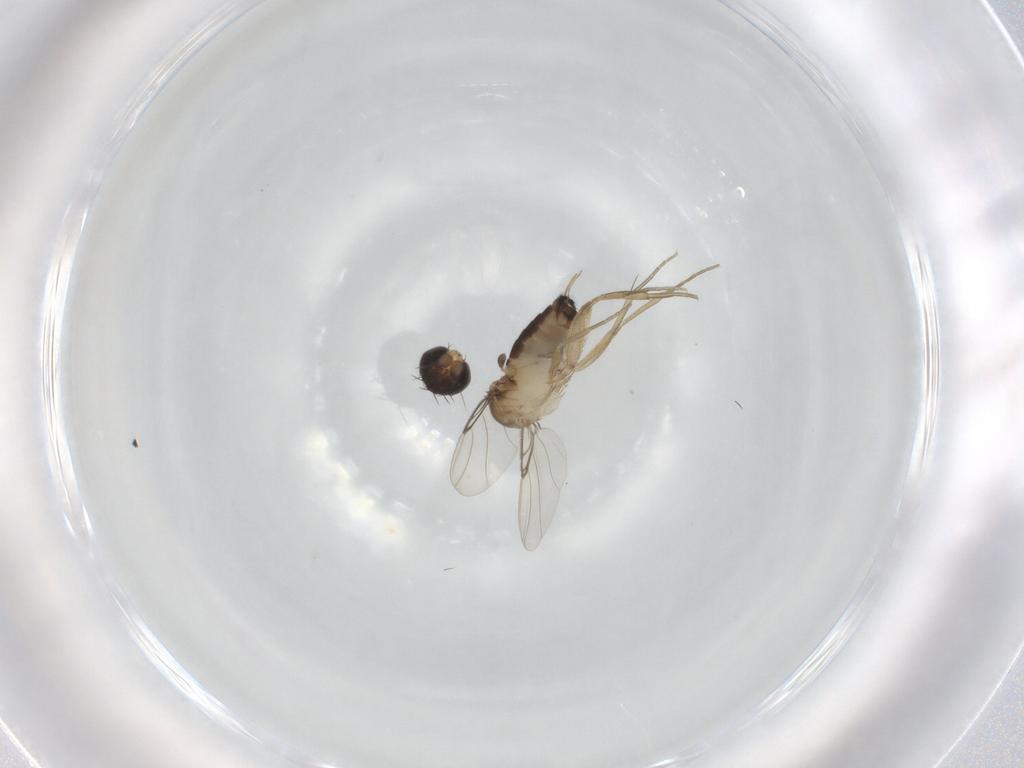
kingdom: Animalia
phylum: Arthropoda
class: Insecta
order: Diptera
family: Phoridae
